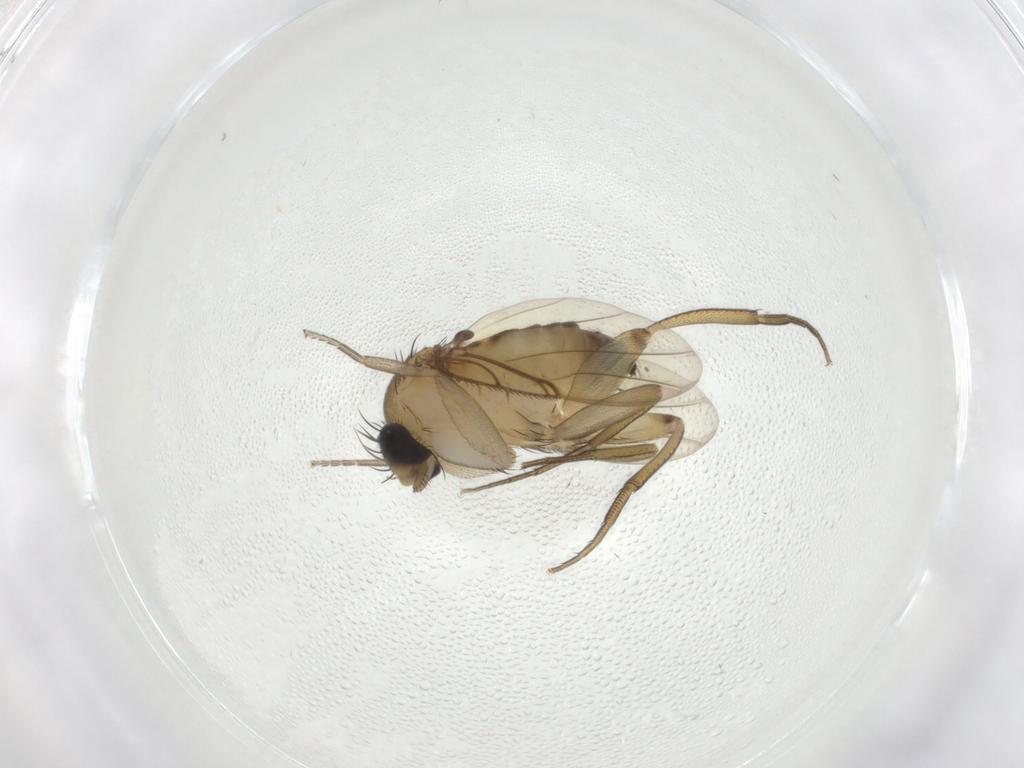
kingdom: Animalia
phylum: Arthropoda
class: Insecta
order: Diptera
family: Phoridae
